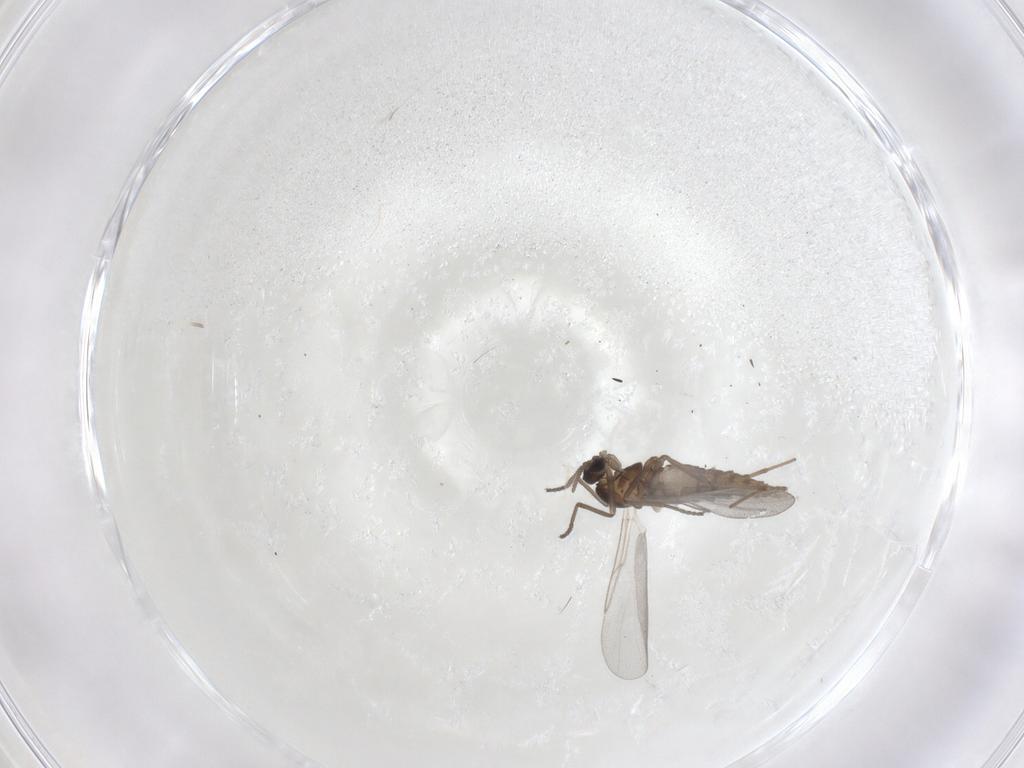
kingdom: Animalia
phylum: Arthropoda
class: Insecta
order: Diptera
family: Cecidomyiidae
